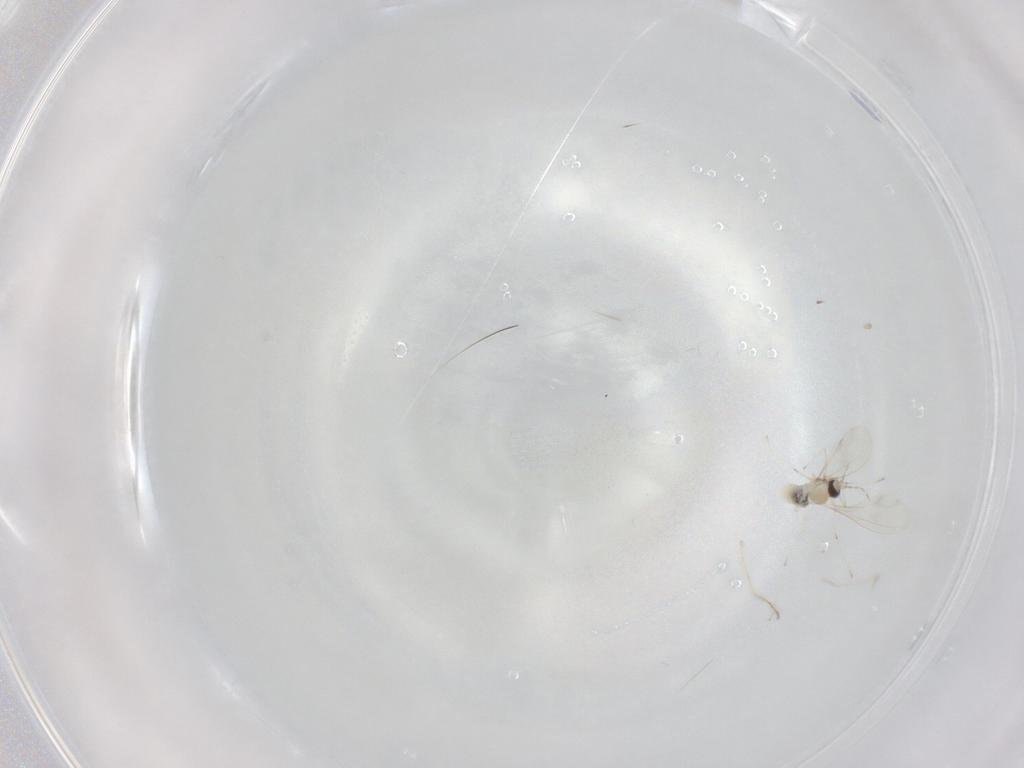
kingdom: Animalia
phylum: Arthropoda
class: Insecta
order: Diptera
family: Cecidomyiidae
